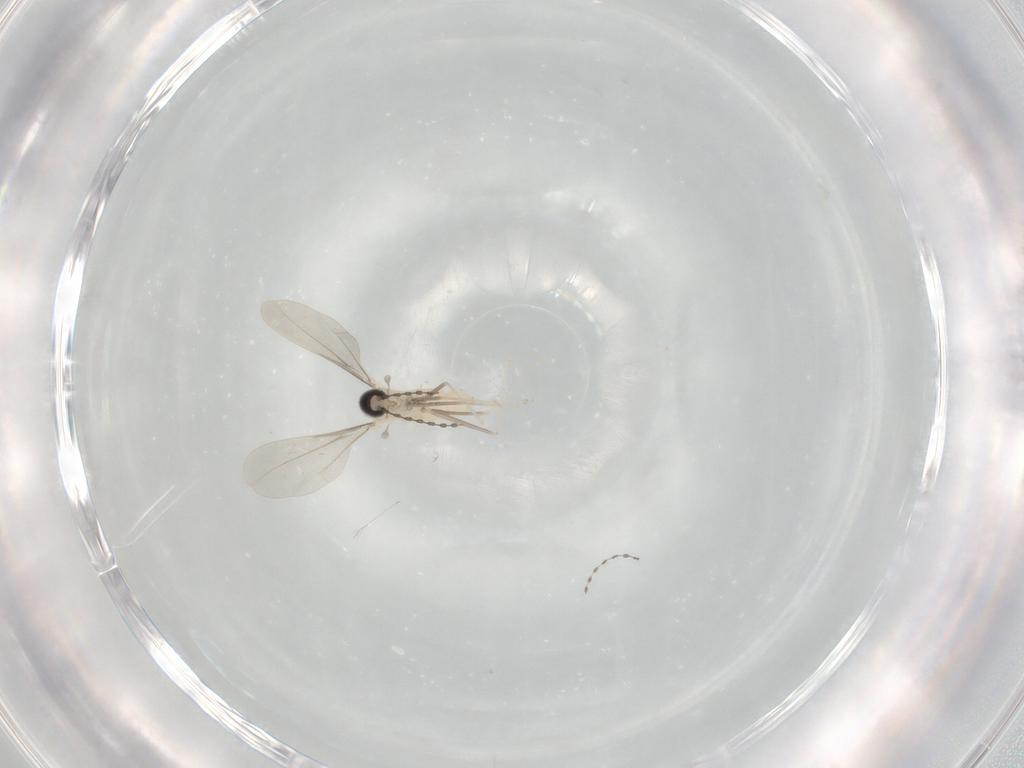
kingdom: Animalia
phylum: Arthropoda
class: Insecta
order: Diptera
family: Cecidomyiidae
